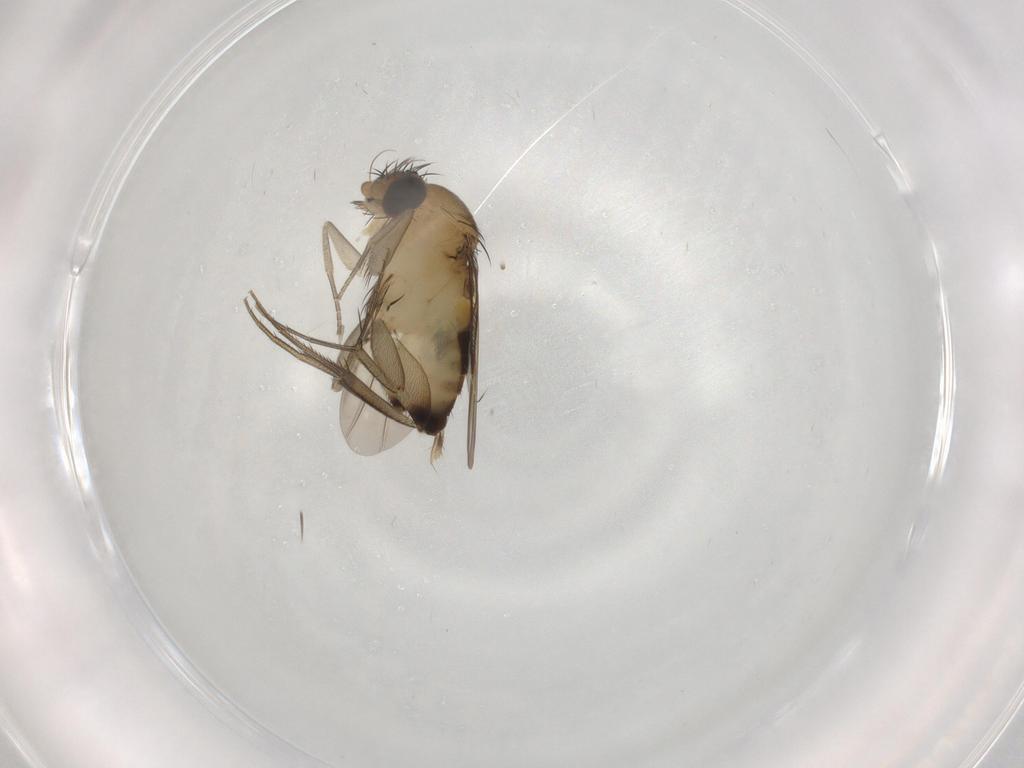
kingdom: Animalia
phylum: Arthropoda
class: Insecta
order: Diptera
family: Phoridae
